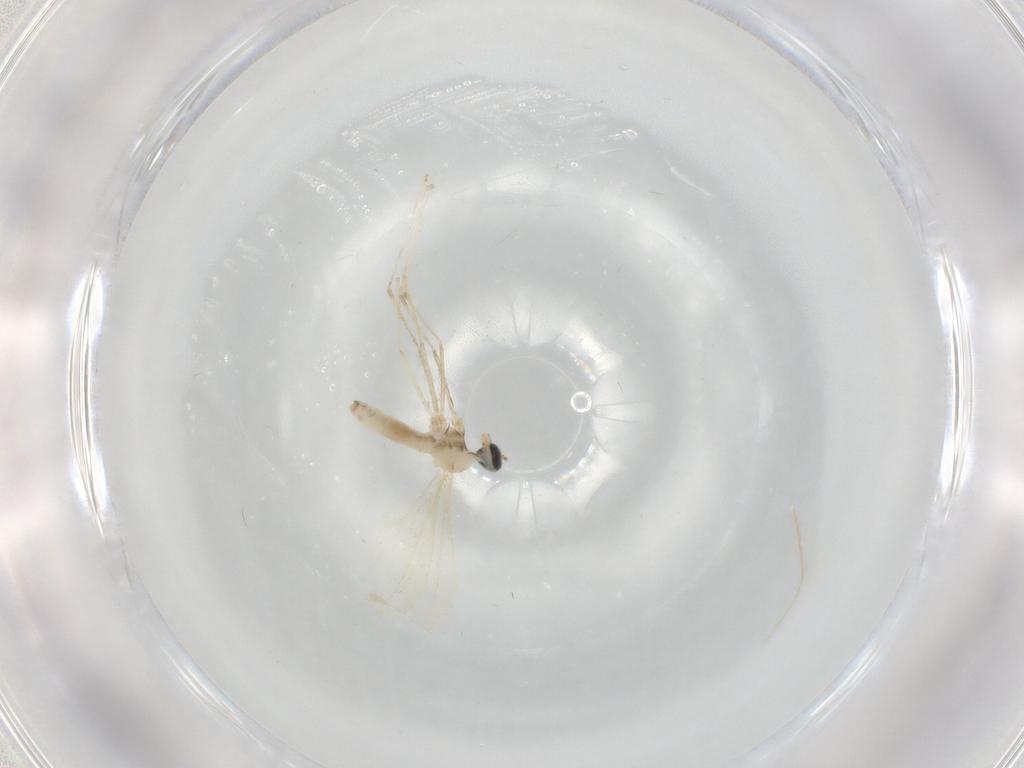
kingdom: Animalia
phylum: Arthropoda
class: Insecta
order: Diptera
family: Cecidomyiidae
